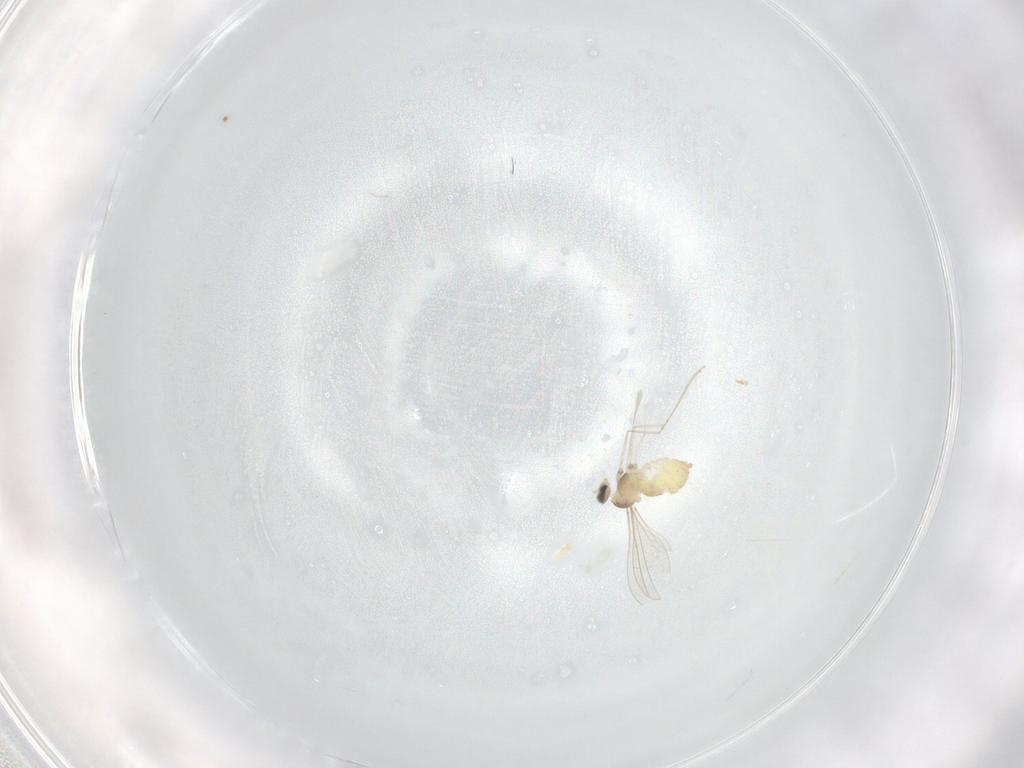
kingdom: Animalia
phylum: Arthropoda
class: Insecta
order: Diptera
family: Cecidomyiidae
